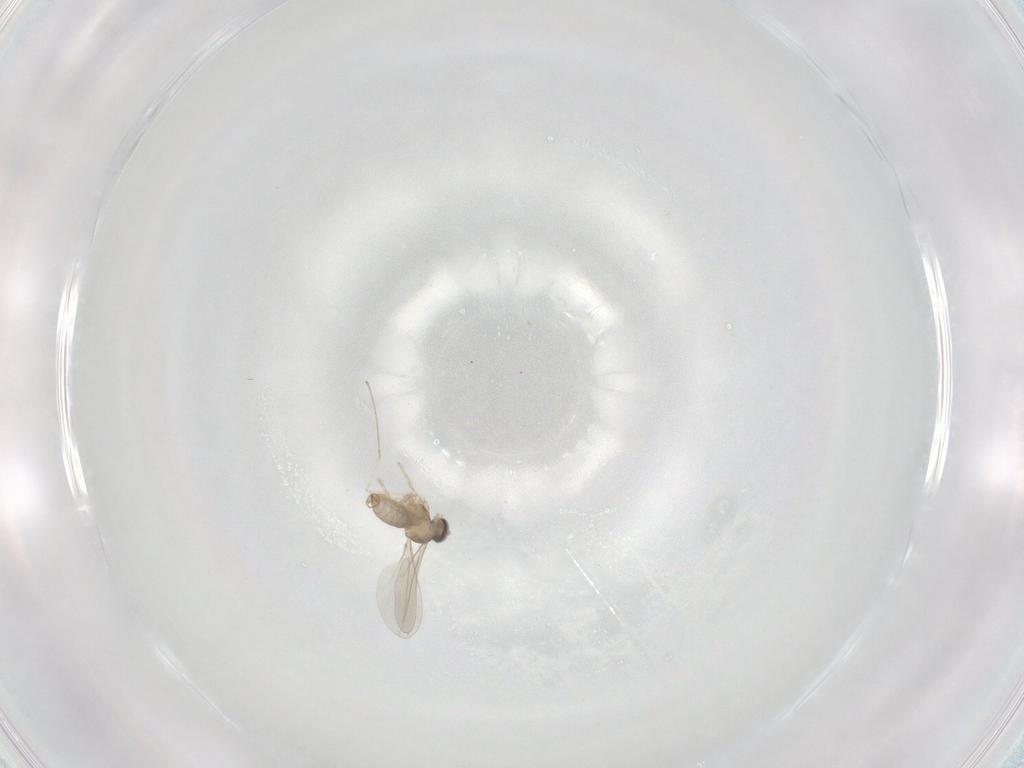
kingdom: Animalia
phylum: Arthropoda
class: Insecta
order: Diptera
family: Cecidomyiidae
